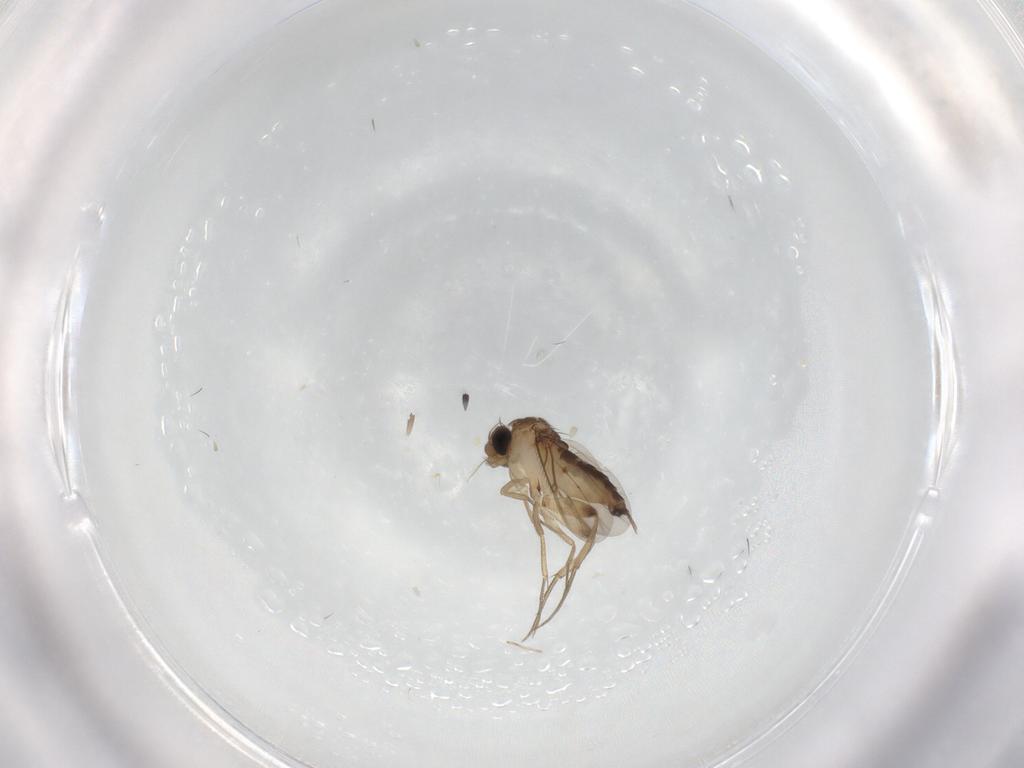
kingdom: Animalia
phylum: Arthropoda
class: Insecta
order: Diptera
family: Phoridae
